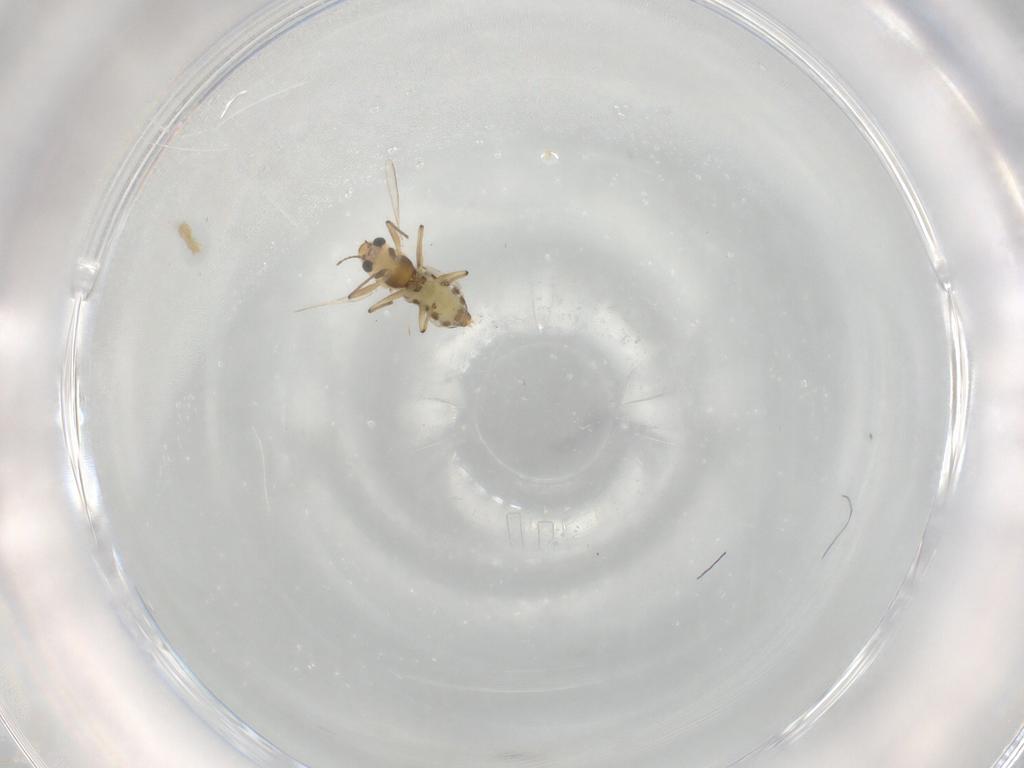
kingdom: Animalia
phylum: Arthropoda
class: Insecta
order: Diptera
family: Chironomidae
